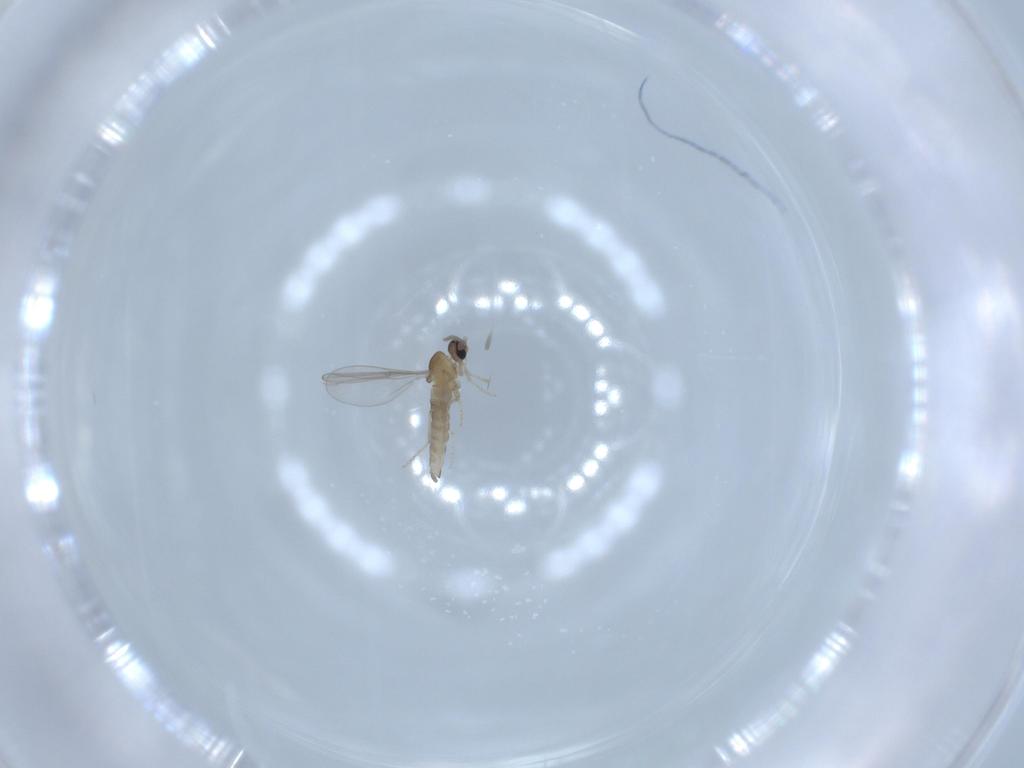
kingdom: Animalia
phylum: Arthropoda
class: Insecta
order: Diptera
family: Cecidomyiidae
